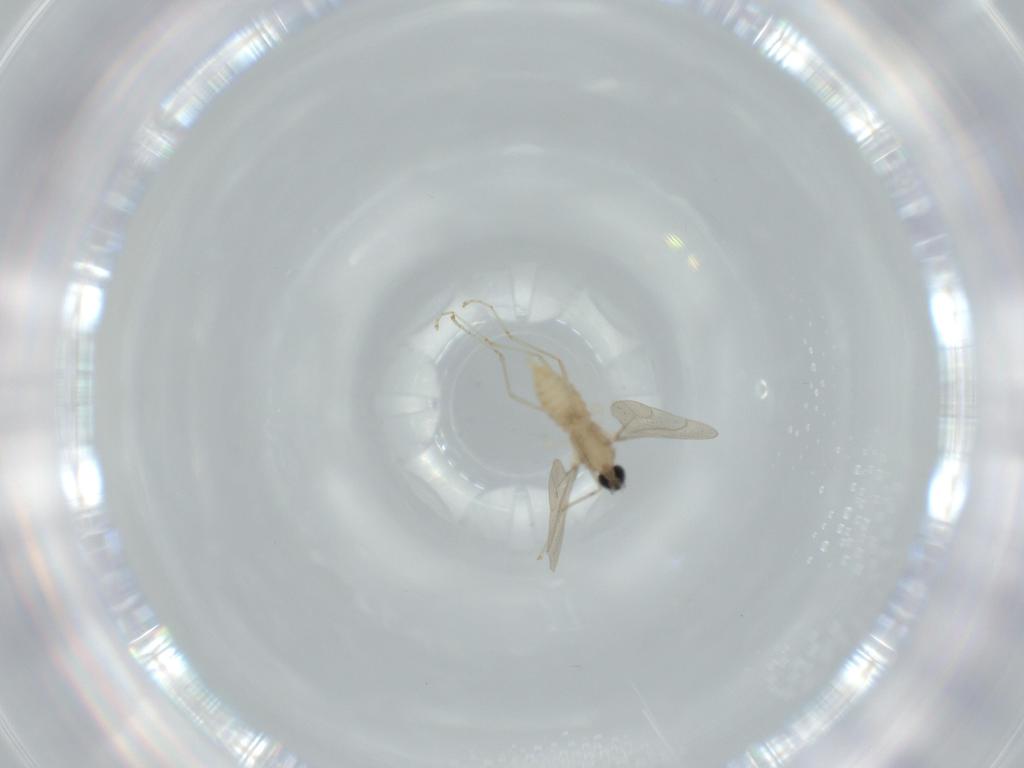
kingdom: Animalia
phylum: Arthropoda
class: Insecta
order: Diptera
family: Cecidomyiidae
